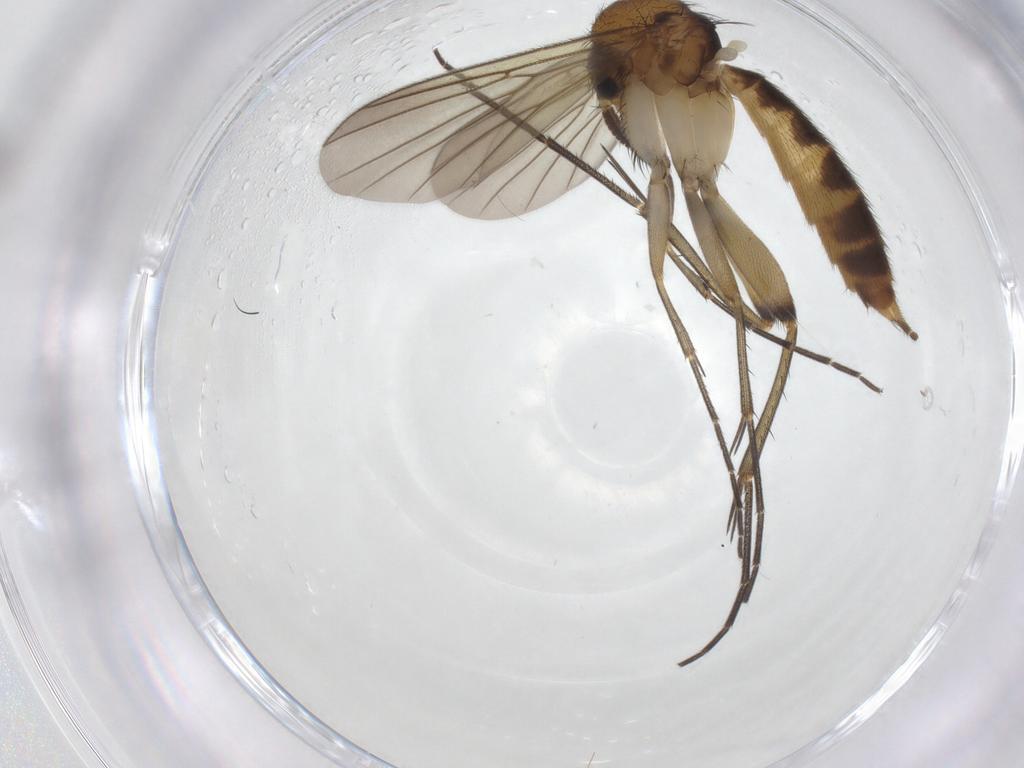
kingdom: Animalia
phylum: Arthropoda
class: Insecta
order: Diptera
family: Mycetophilidae
